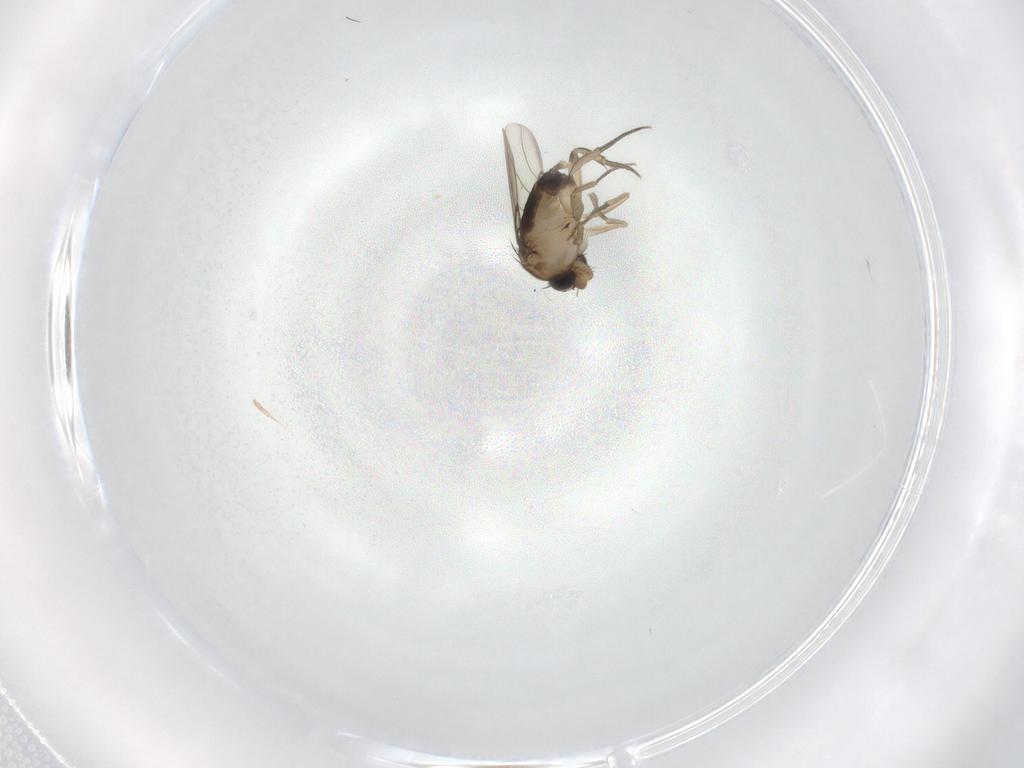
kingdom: Animalia
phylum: Arthropoda
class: Insecta
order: Diptera
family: Phoridae
